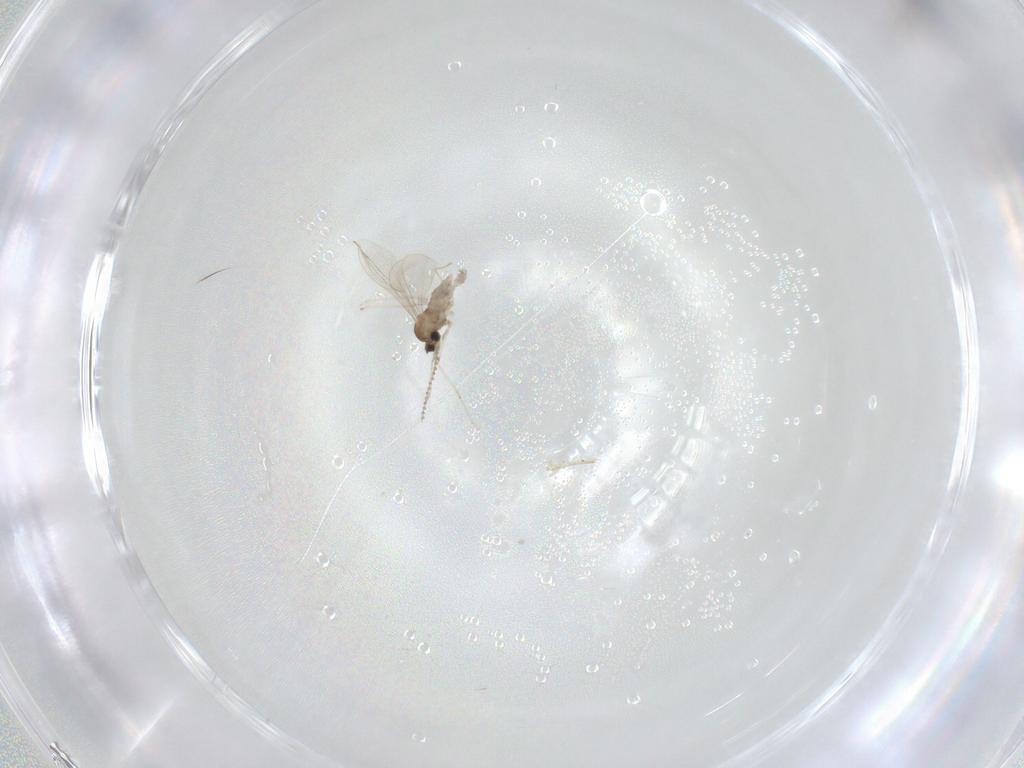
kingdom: Animalia
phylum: Arthropoda
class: Insecta
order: Diptera
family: Cecidomyiidae
